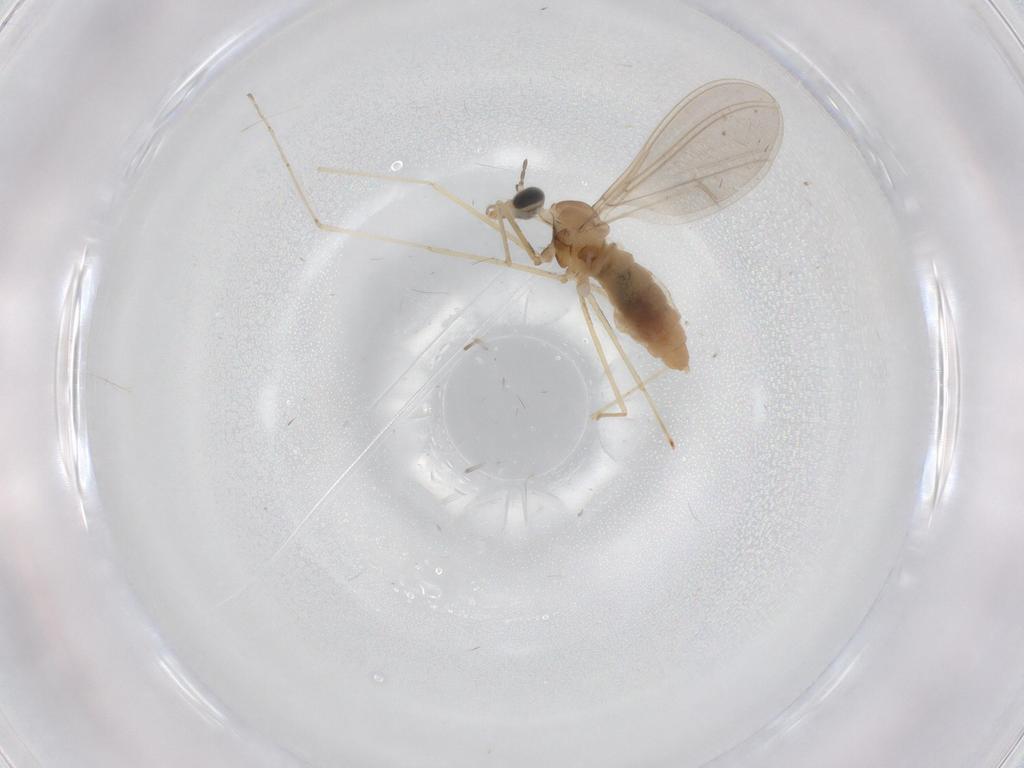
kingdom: Animalia
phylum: Arthropoda
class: Insecta
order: Diptera
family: Cecidomyiidae
